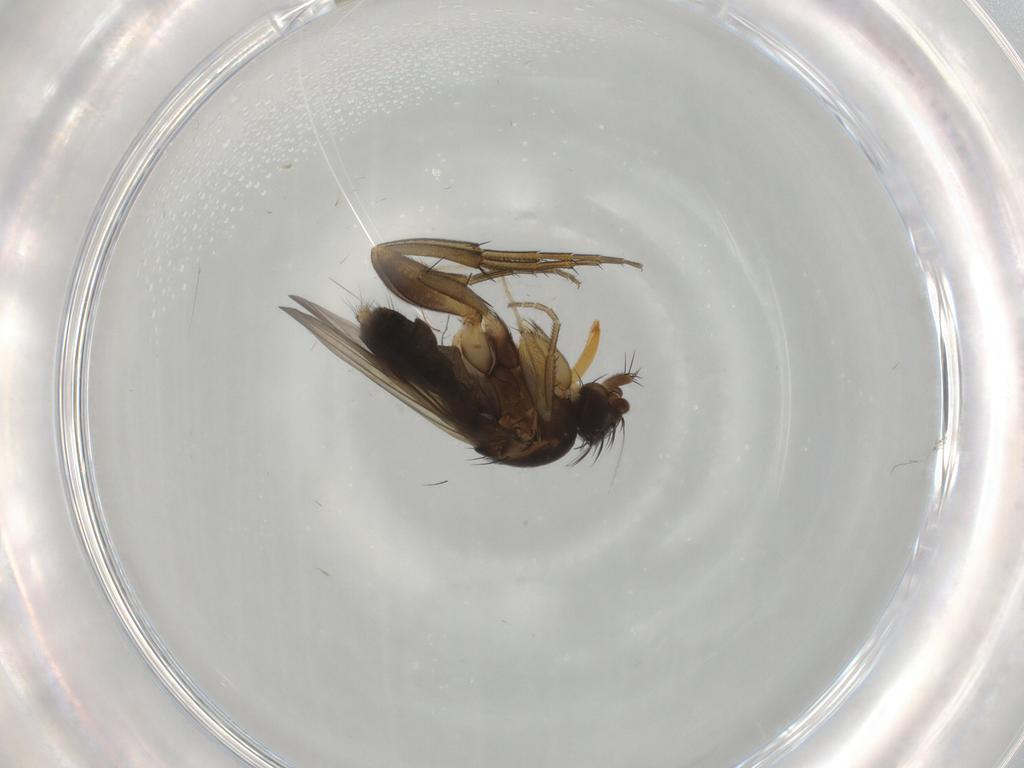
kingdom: Animalia
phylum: Arthropoda
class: Insecta
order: Diptera
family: Phoridae
